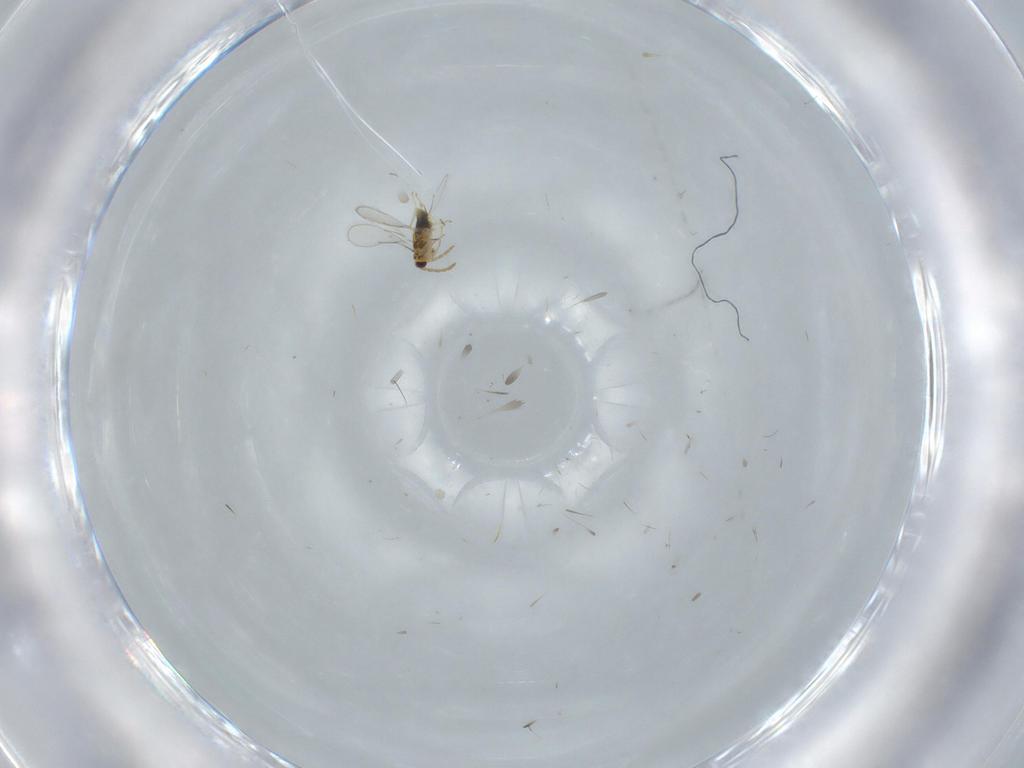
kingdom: Animalia
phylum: Arthropoda
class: Insecta
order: Hymenoptera
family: Aphelinidae
